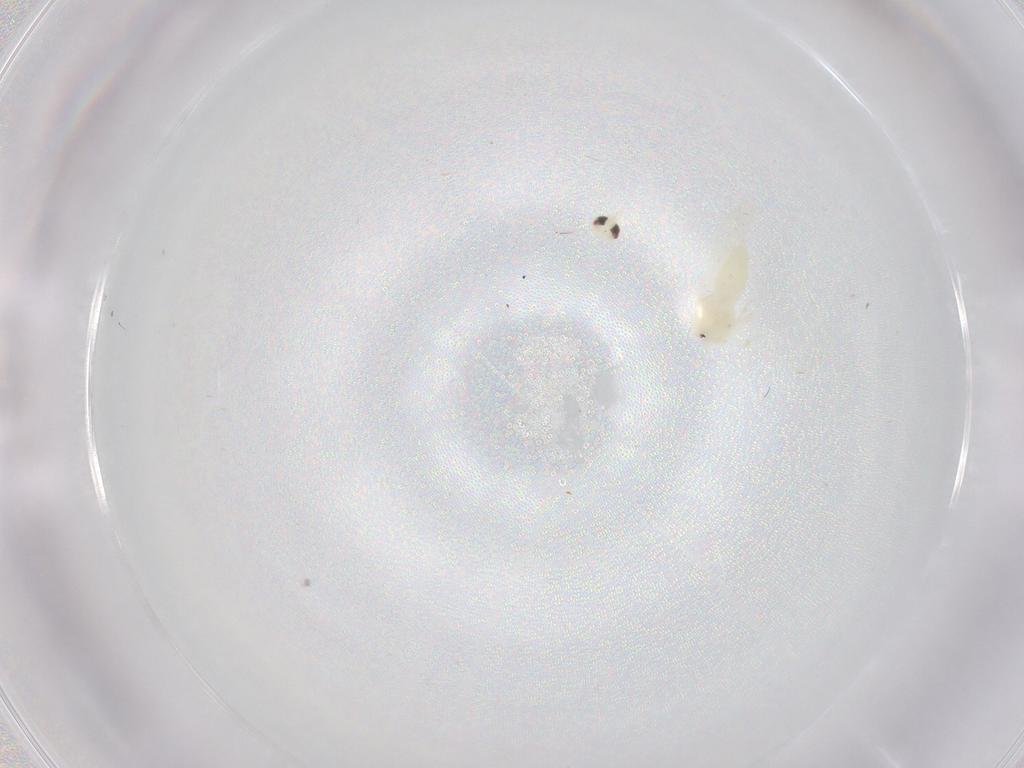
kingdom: Animalia
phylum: Arthropoda
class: Insecta
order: Hemiptera
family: Aleyrodidae
